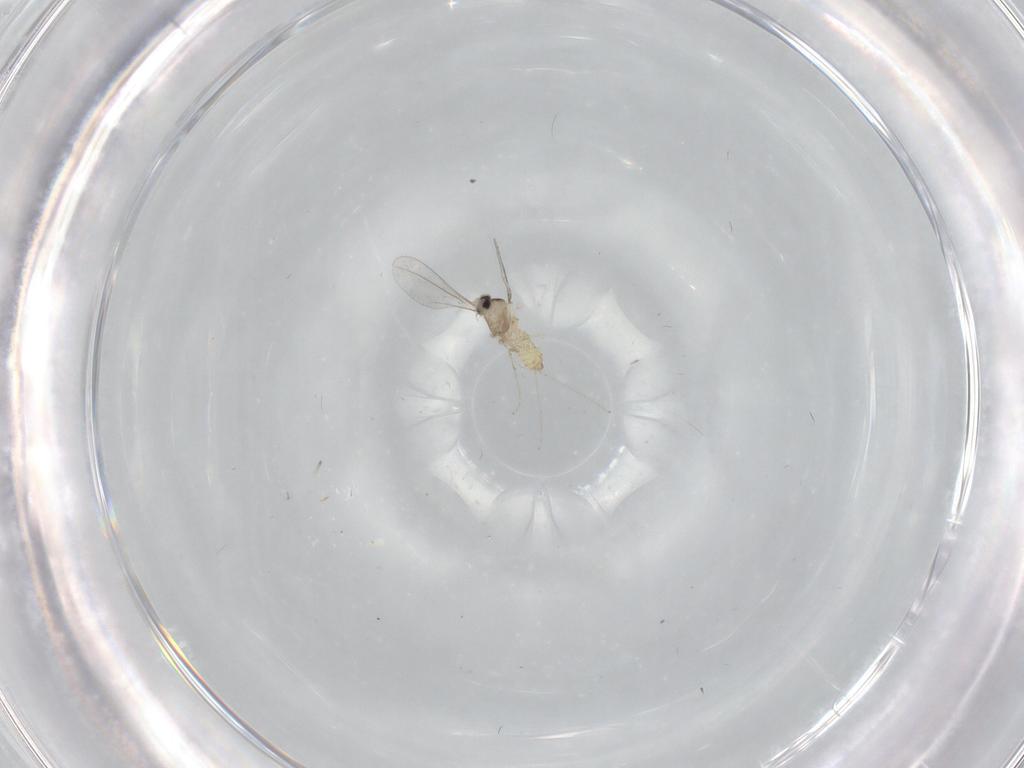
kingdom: Animalia
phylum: Arthropoda
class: Insecta
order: Diptera
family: Cecidomyiidae
